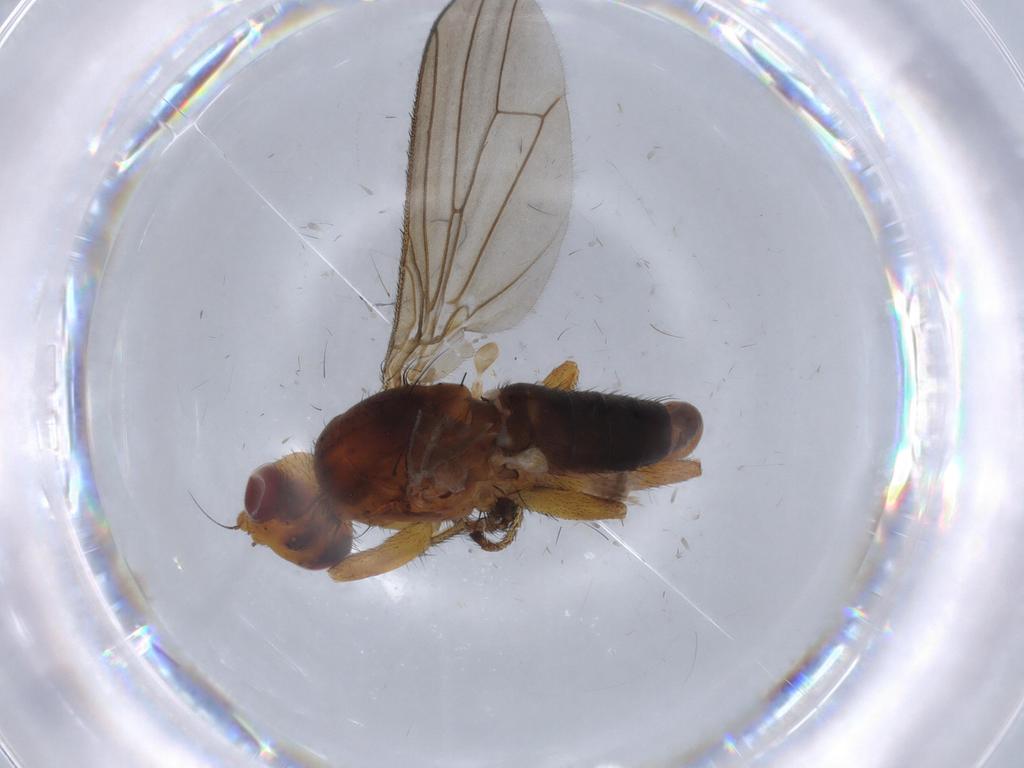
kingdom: Animalia
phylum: Arthropoda
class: Insecta
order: Diptera
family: Heleomyzidae
